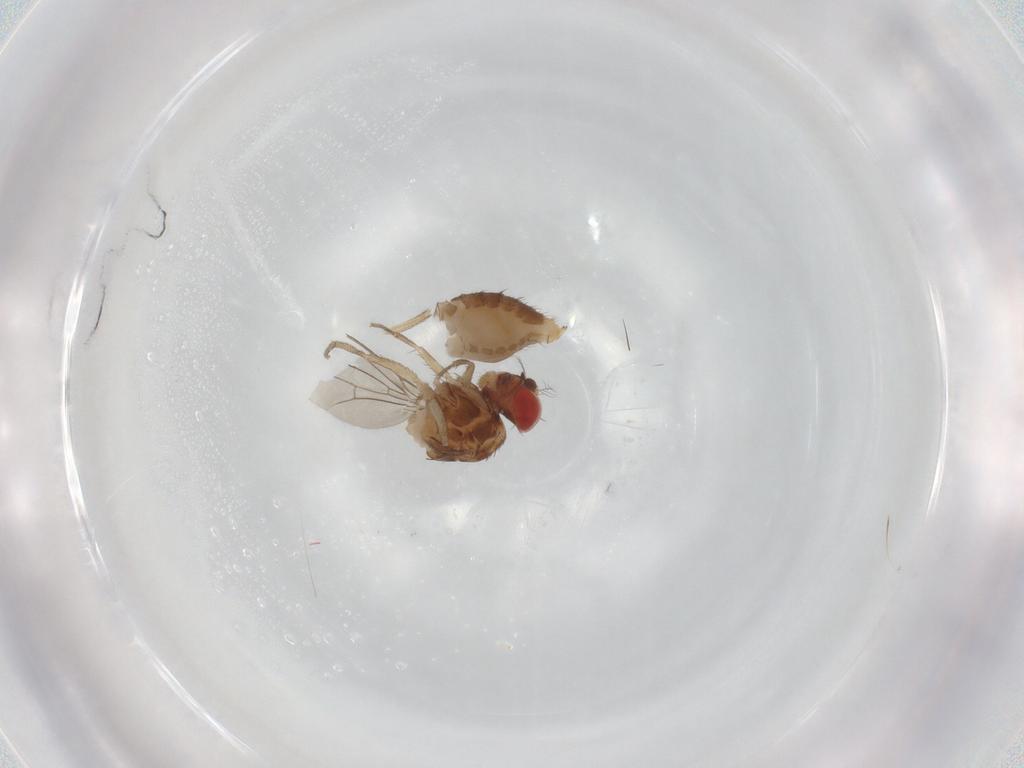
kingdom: Animalia
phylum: Arthropoda
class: Insecta
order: Diptera
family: Drosophilidae
